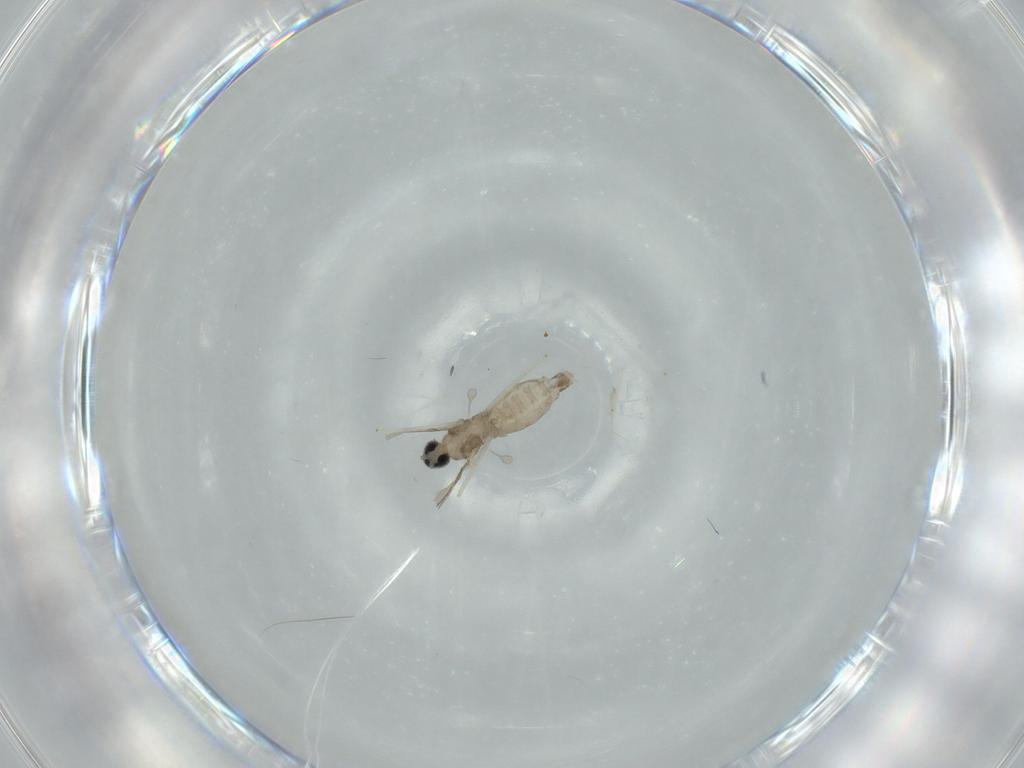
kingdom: Animalia
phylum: Arthropoda
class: Insecta
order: Diptera
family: Cecidomyiidae
